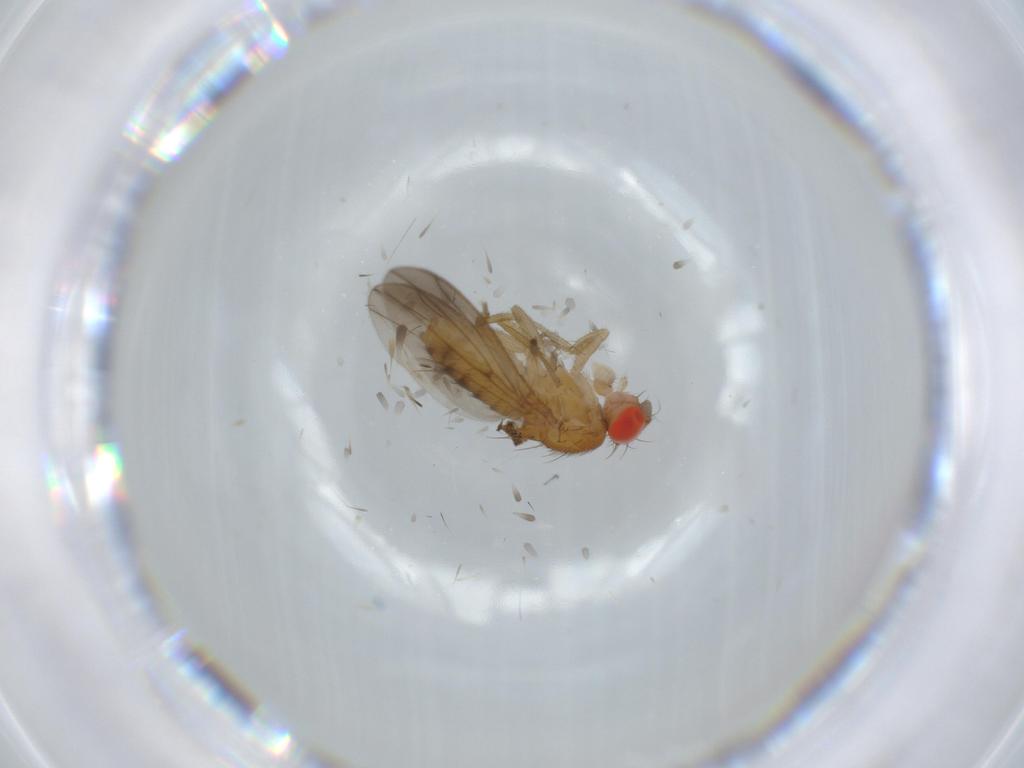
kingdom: Animalia
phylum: Arthropoda
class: Insecta
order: Diptera
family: Drosophilidae
